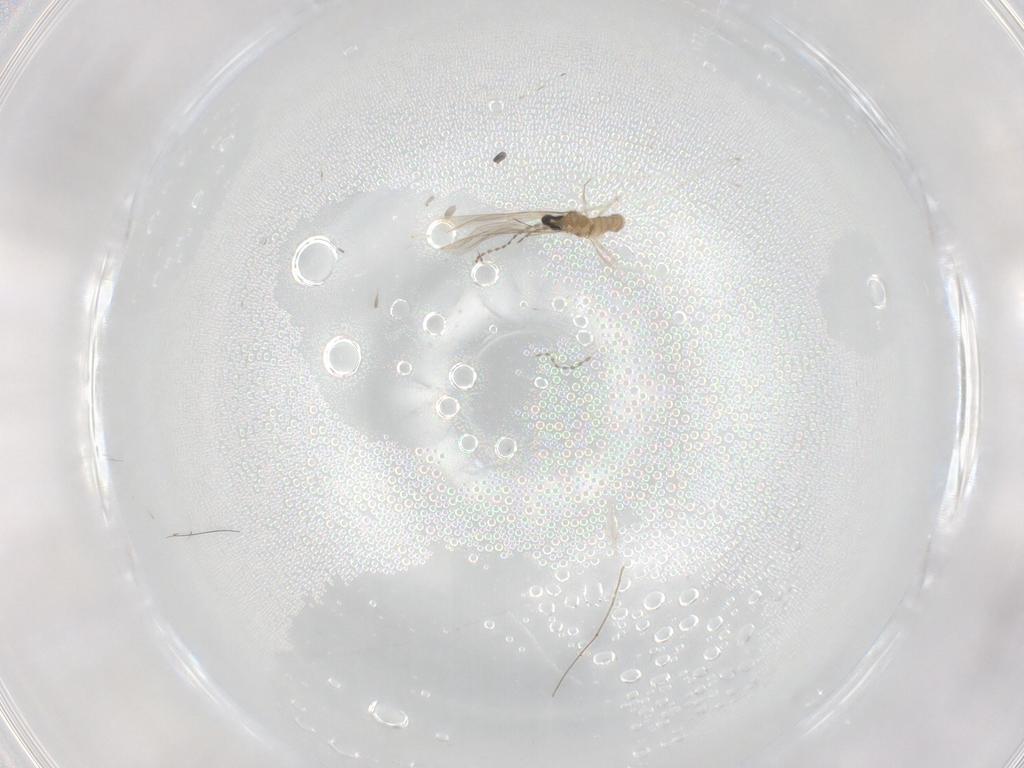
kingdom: Animalia
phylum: Arthropoda
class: Insecta
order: Diptera
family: Cecidomyiidae
